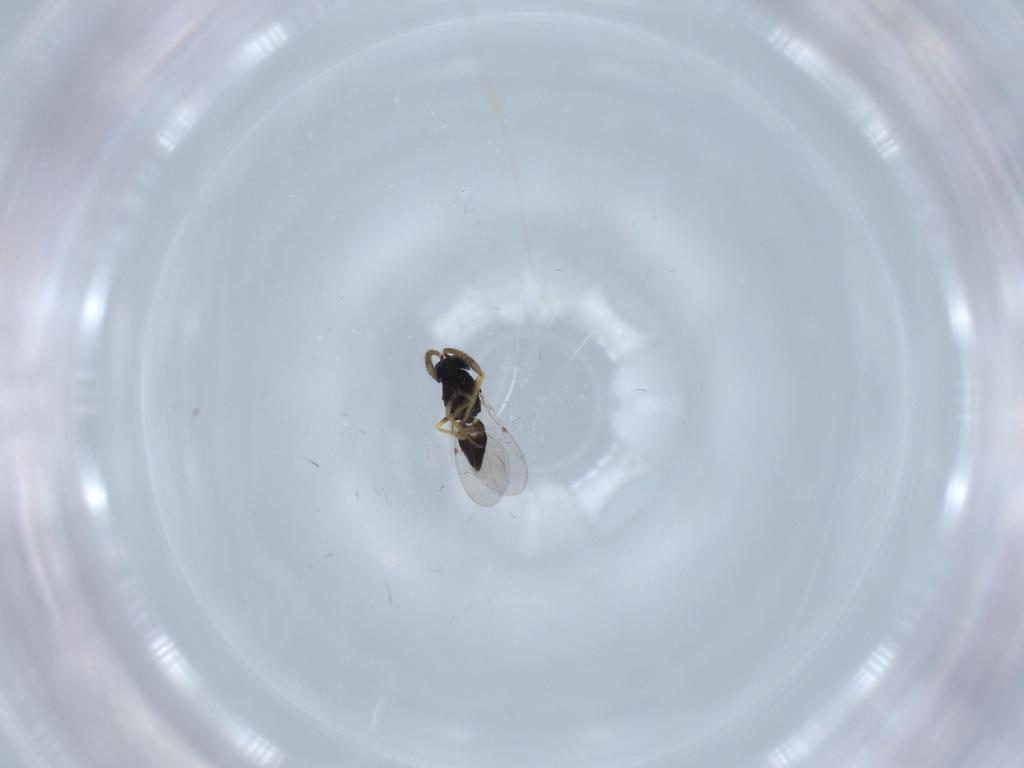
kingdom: Animalia
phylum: Arthropoda
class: Insecta
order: Hymenoptera
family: Encyrtidae
